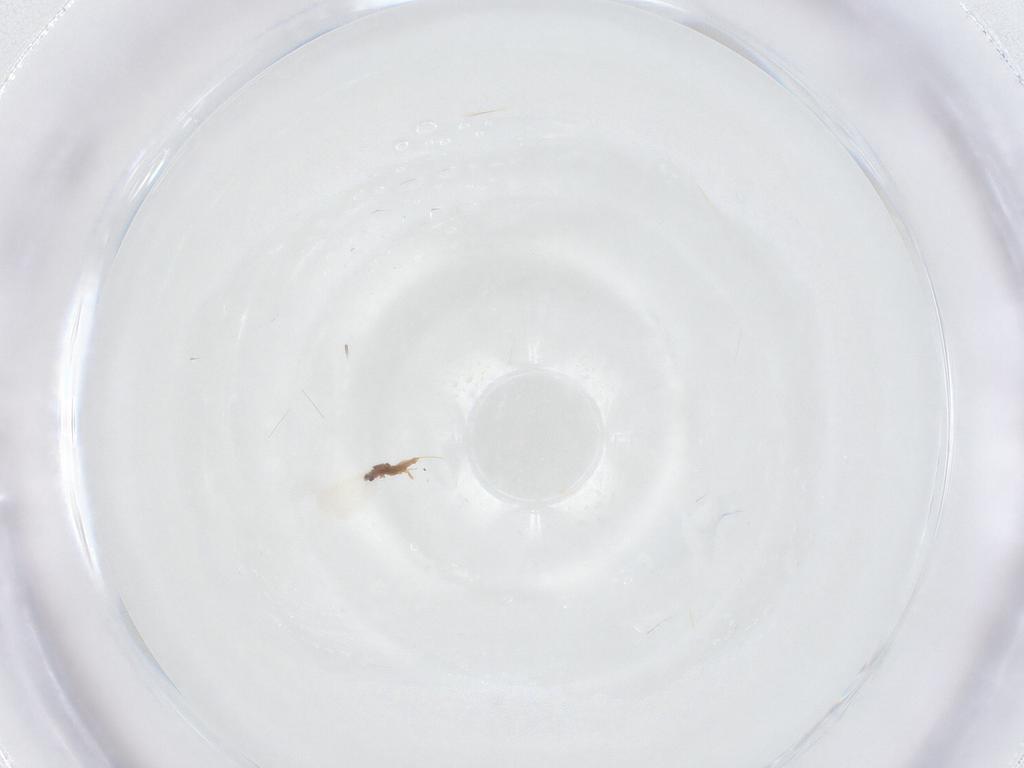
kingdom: Animalia
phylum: Arthropoda
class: Insecta
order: Hemiptera
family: Diaspididae
